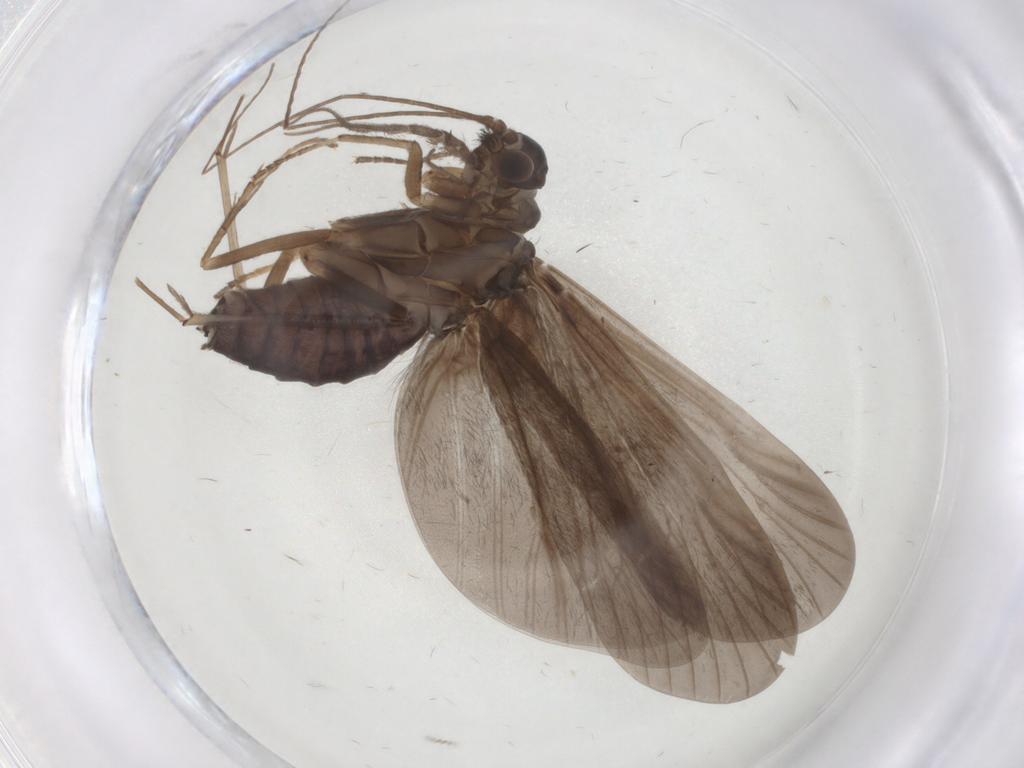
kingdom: Animalia
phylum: Arthropoda
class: Insecta
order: Trichoptera
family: Hydropsychidae
